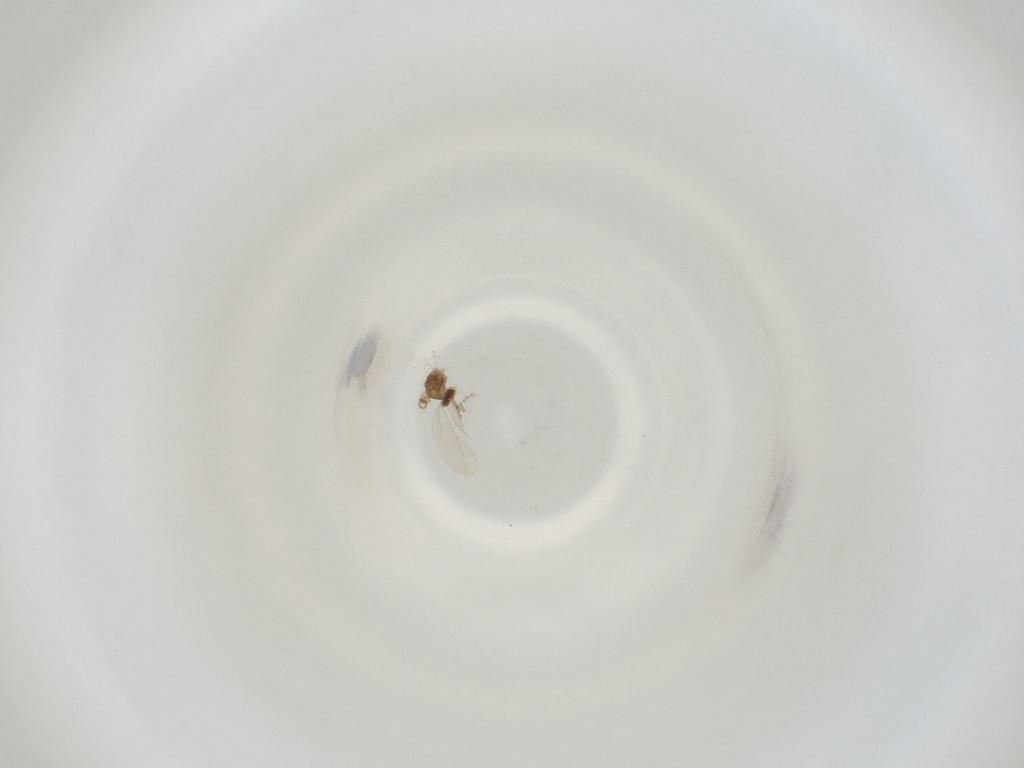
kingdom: Animalia
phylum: Arthropoda
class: Insecta
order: Diptera
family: Cecidomyiidae
